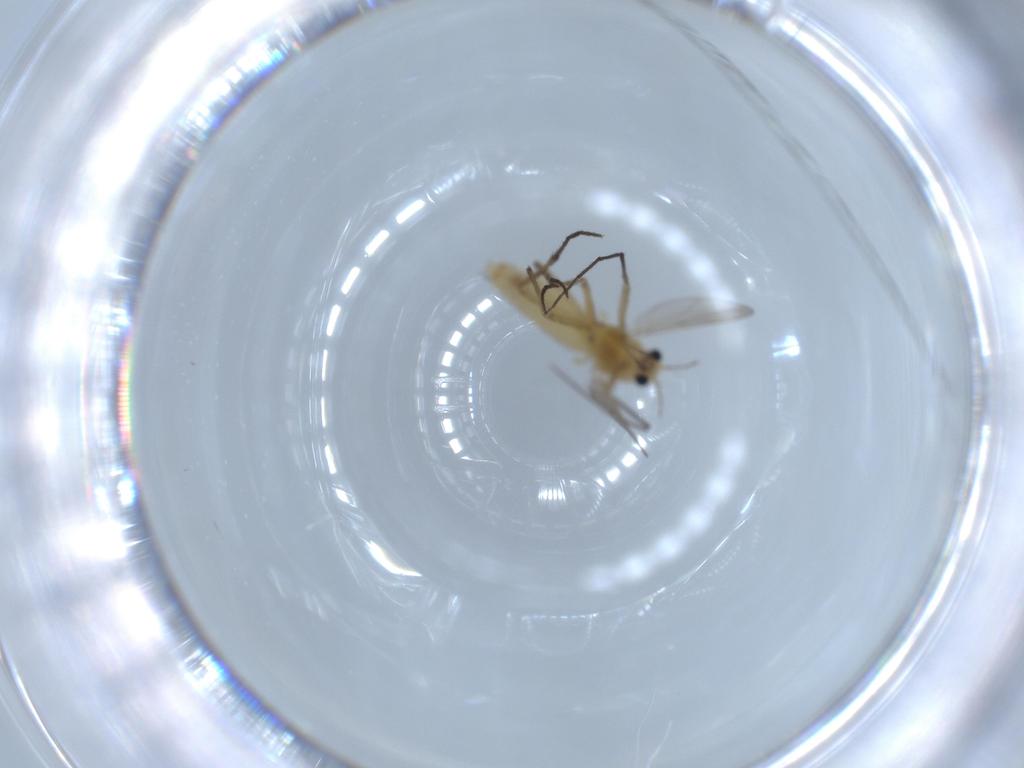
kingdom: Animalia
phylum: Arthropoda
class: Insecta
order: Diptera
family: Chironomidae
